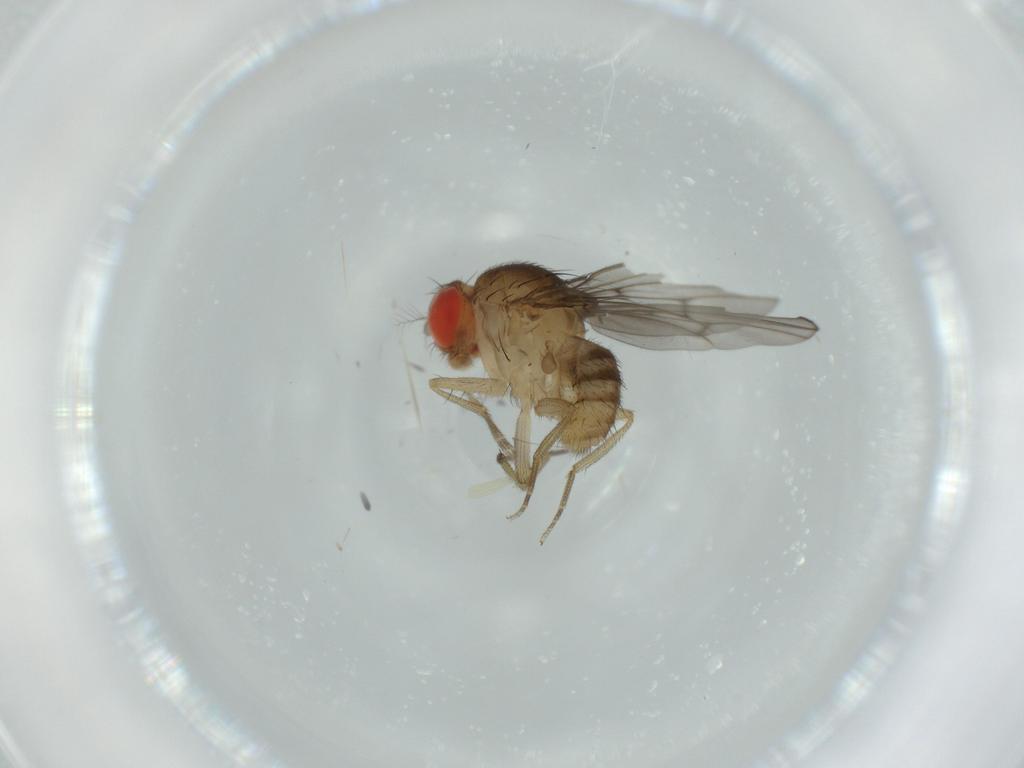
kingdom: Animalia
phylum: Arthropoda
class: Insecta
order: Diptera
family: Drosophilidae
